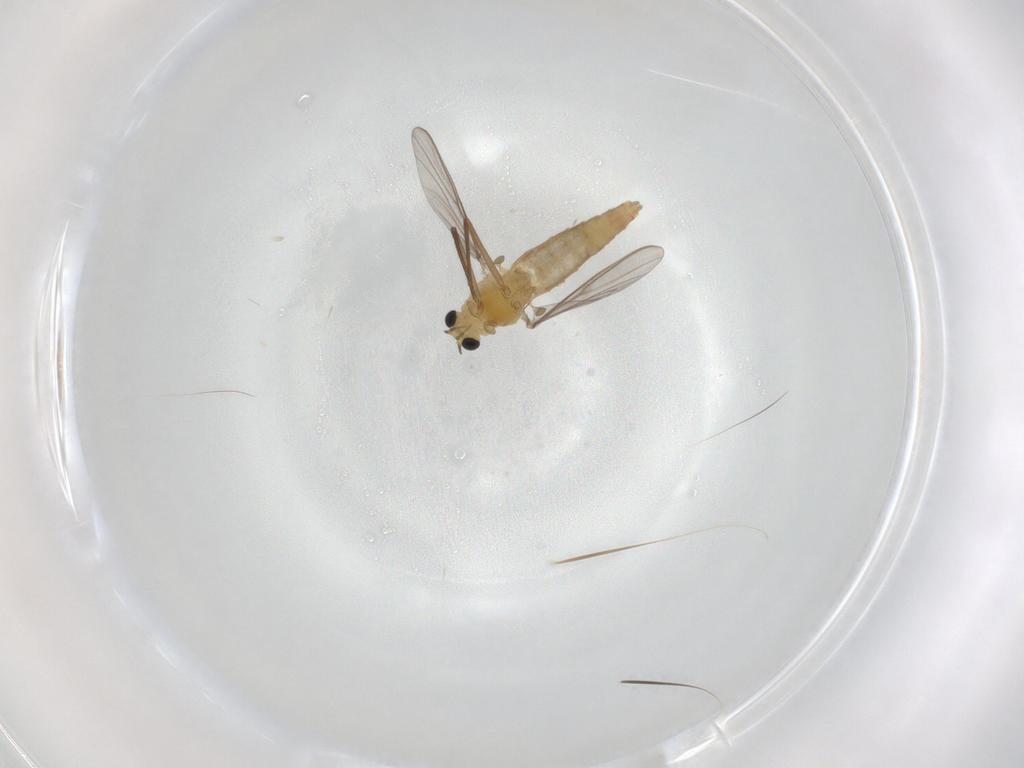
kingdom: Animalia
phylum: Arthropoda
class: Insecta
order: Diptera
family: Chironomidae
